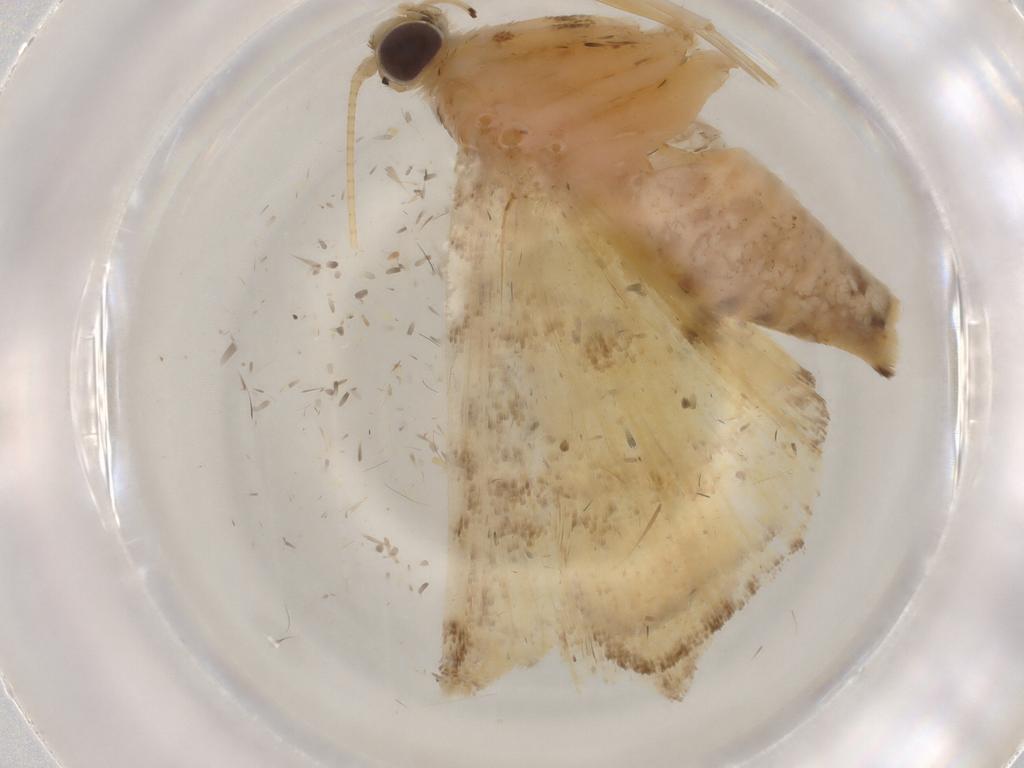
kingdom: Animalia
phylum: Arthropoda
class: Insecta
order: Lepidoptera
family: Crambidae
